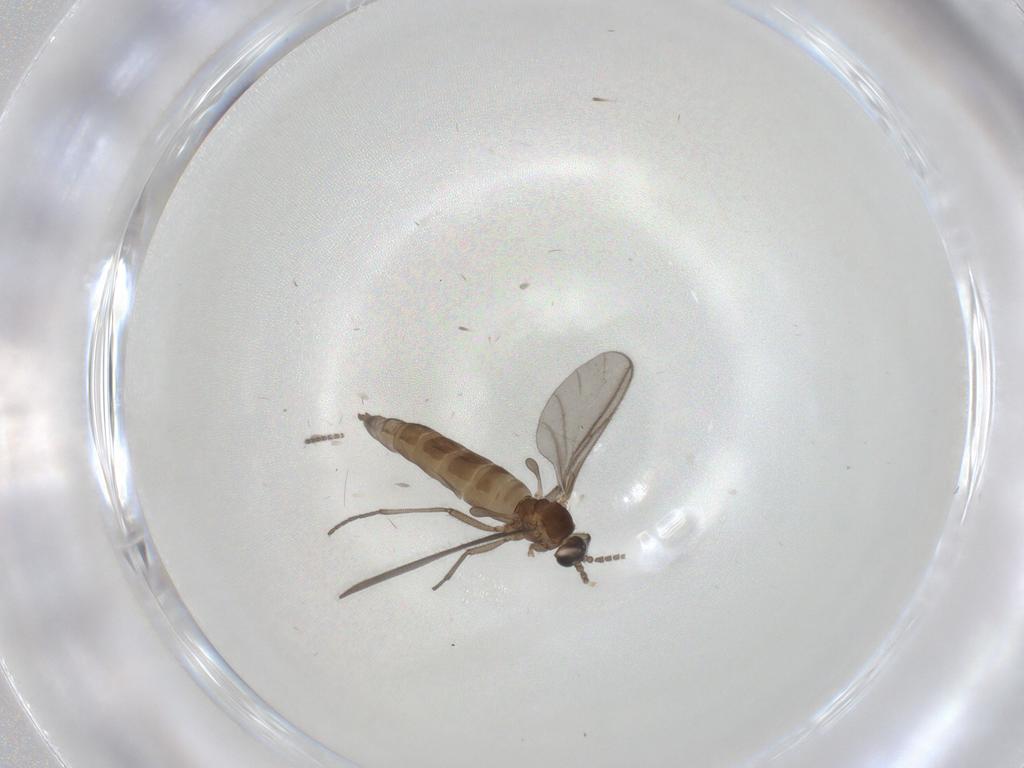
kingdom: Animalia
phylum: Arthropoda
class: Insecta
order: Diptera
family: Sciaridae
